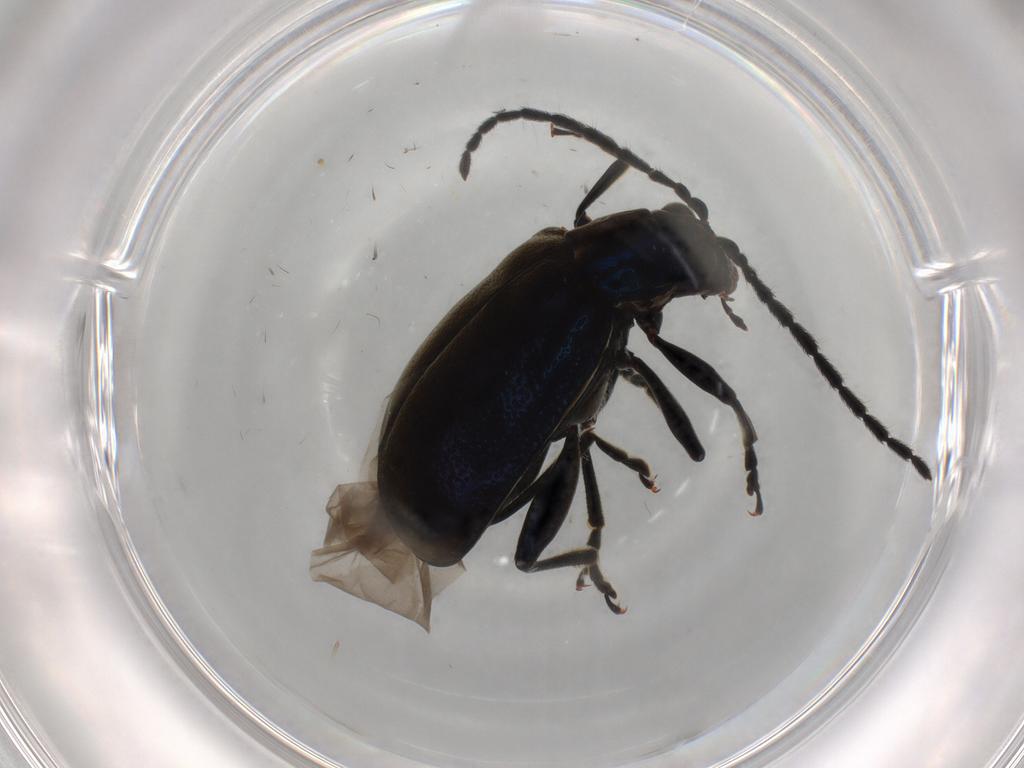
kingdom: Animalia
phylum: Arthropoda
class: Insecta
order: Coleoptera
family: Chrysomelidae
